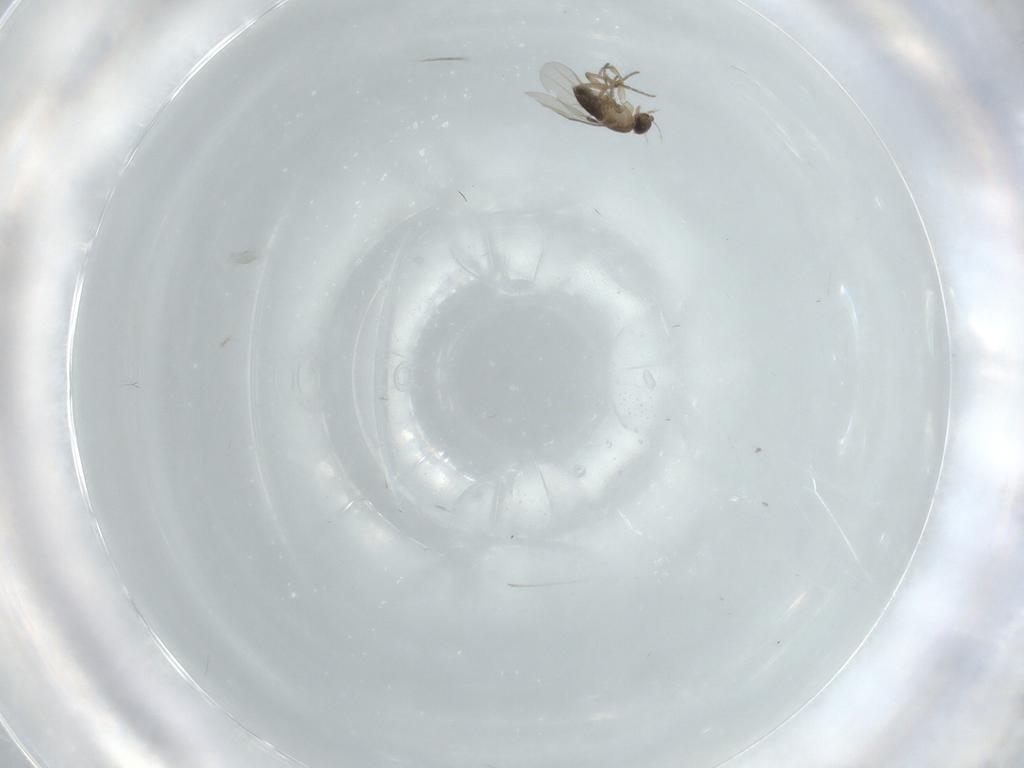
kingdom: Animalia
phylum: Arthropoda
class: Insecta
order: Diptera
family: Phoridae
